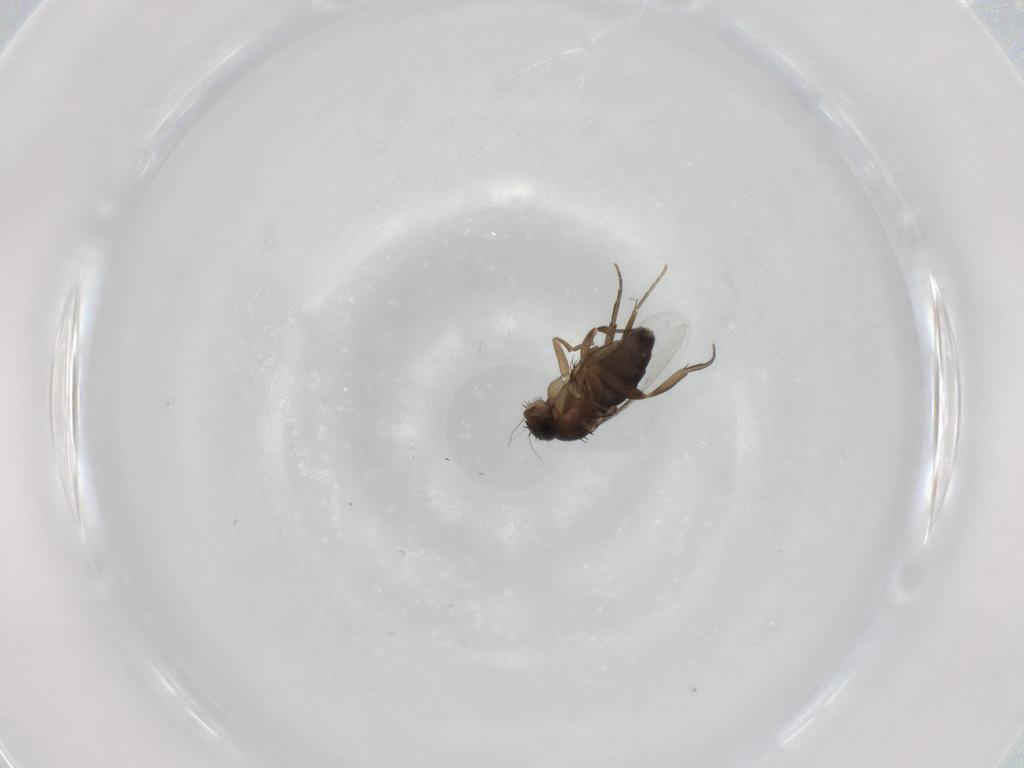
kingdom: Animalia
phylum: Arthropoda
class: Insecta
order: Diptera
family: Phoridae
